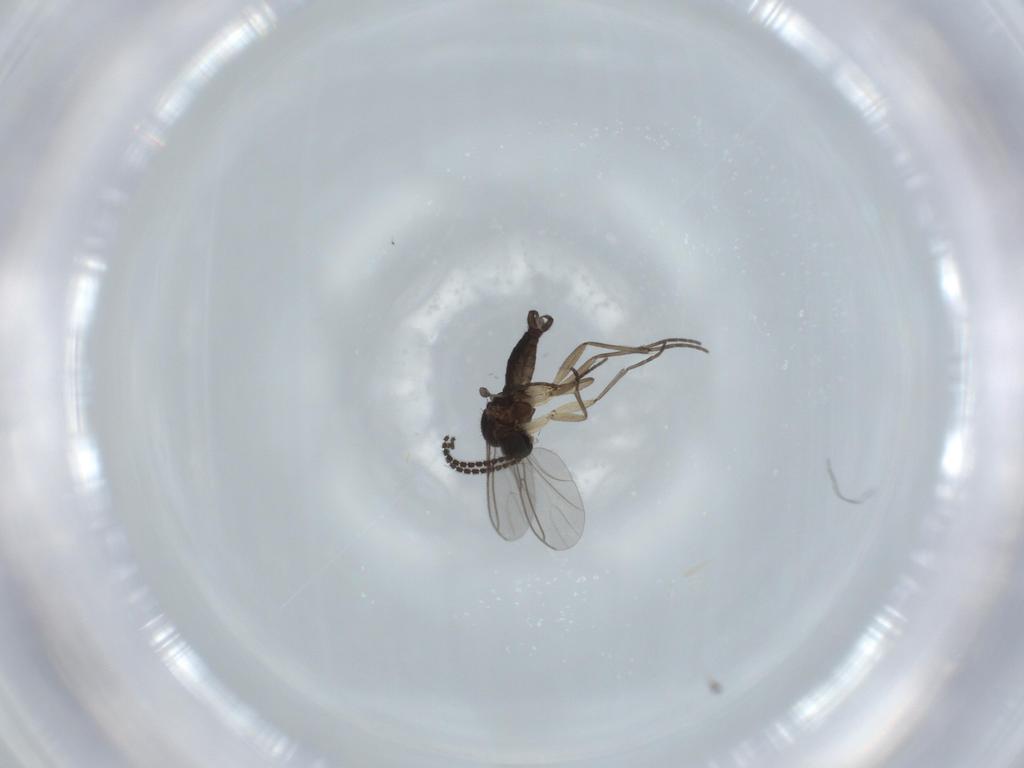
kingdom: Animalia
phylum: Arthropoda
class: Insecta
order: Diptera
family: Sciaridae
